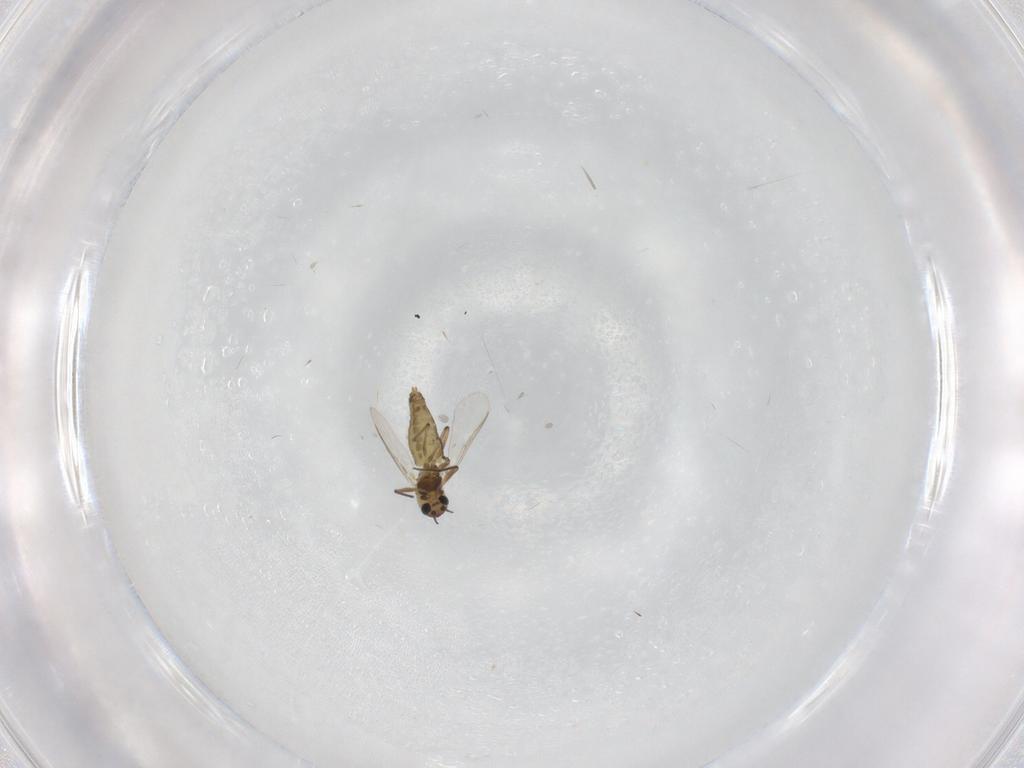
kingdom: Animalia
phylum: Arthropoda
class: Insecta
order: Diptera
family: Chironomidae
